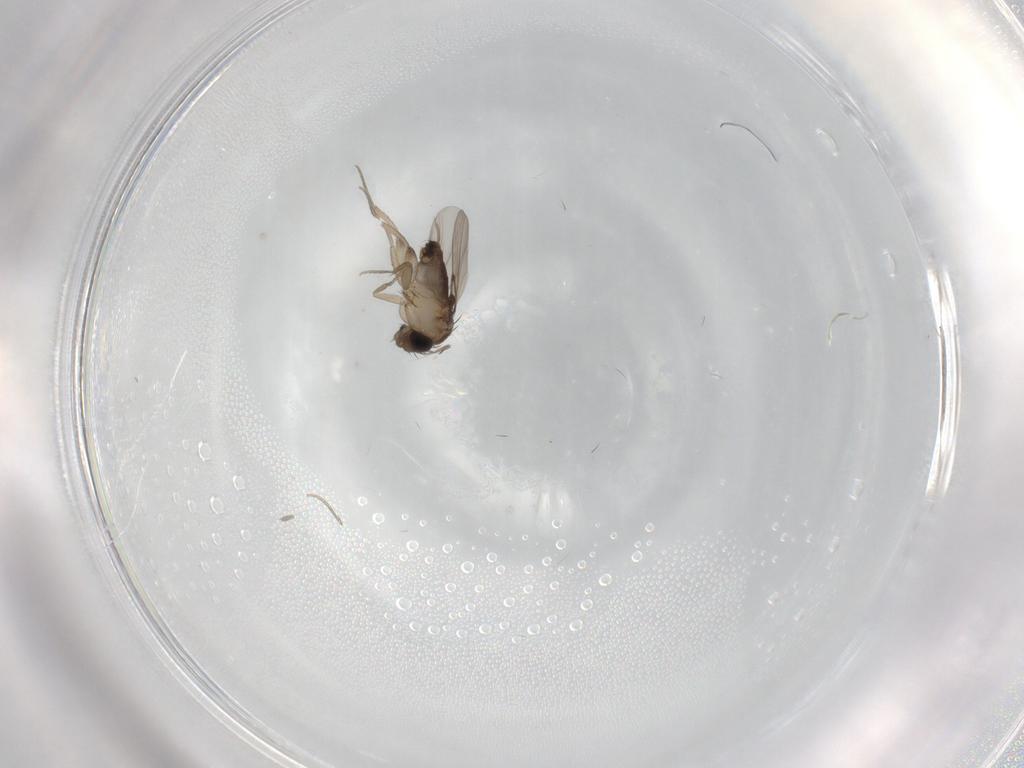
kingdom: Animalia
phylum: Arthropoda
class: Insecta
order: Diptera
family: Phoridae
